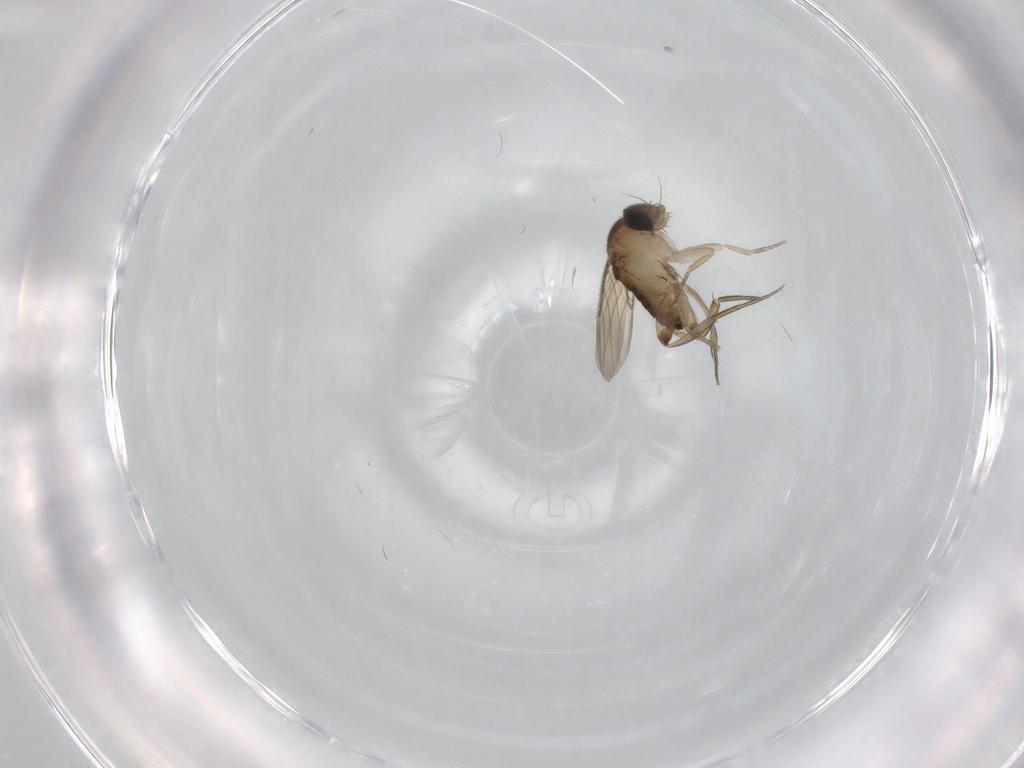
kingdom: Animalia
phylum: Arthropoda
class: Insecta
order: Diptera
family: Phoridae
